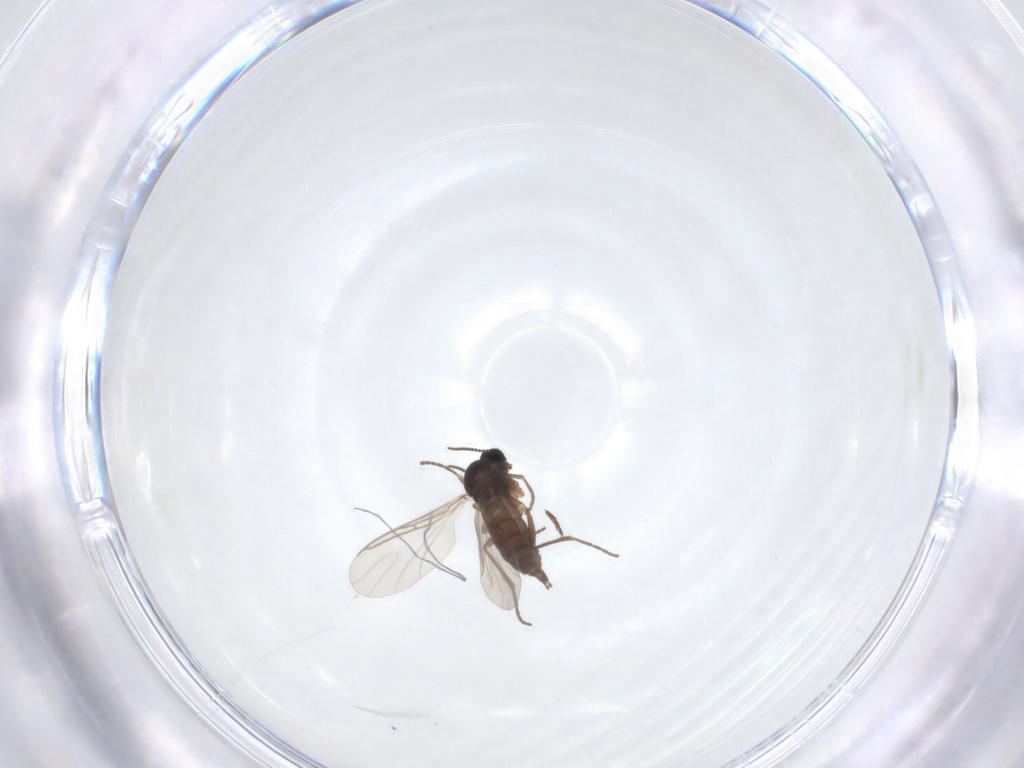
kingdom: Animalia
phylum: Arthropoda
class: Insecta
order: Diptera
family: Sciaridae
